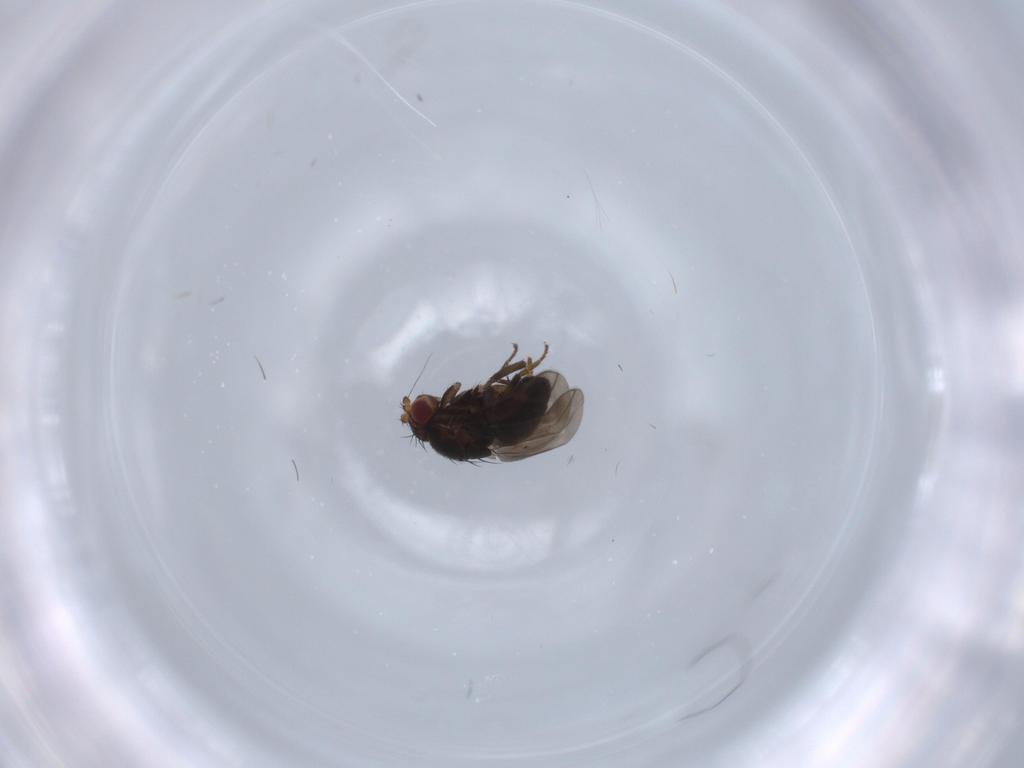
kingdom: Animalia
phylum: Arthropoda
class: Insecta
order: Diptera
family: Sphaeroceridae
